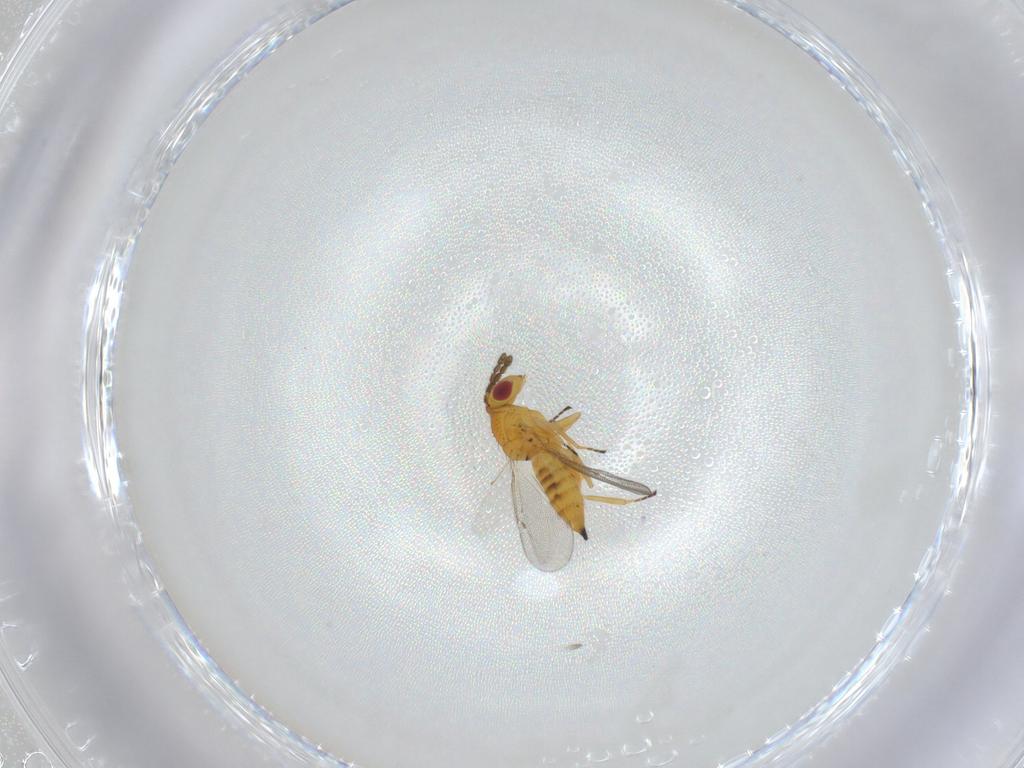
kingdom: Animalia
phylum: Arthropoda
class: Insecta
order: Hymenoptera
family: Eulophidae
